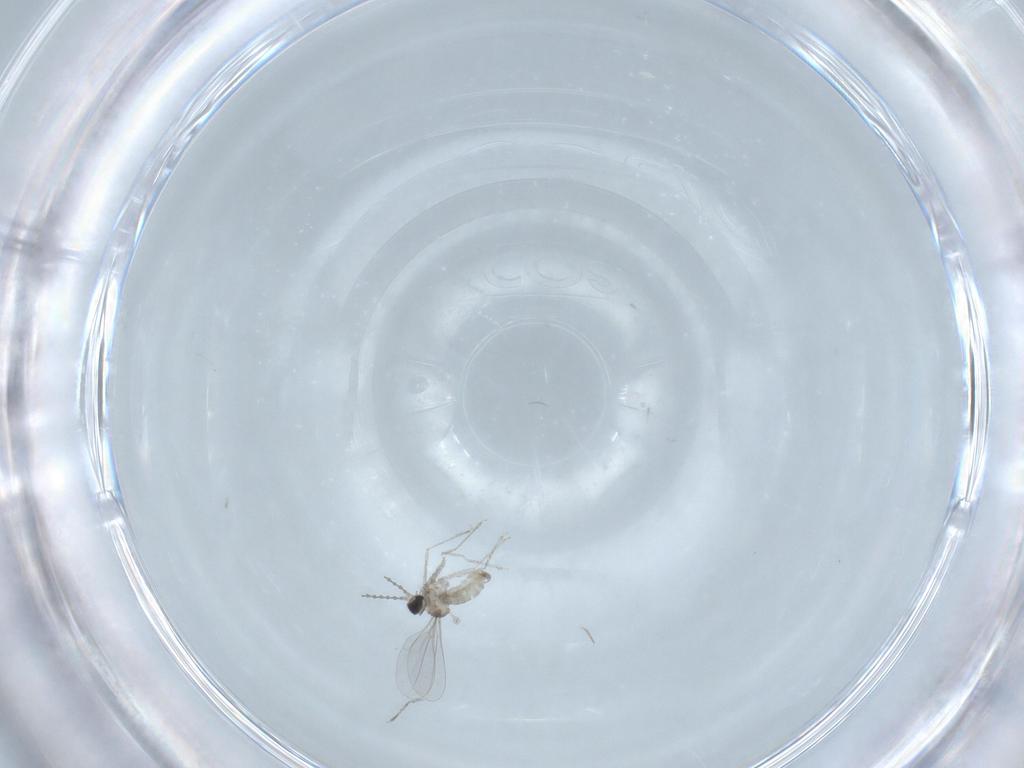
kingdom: Animalia
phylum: Arthropoda
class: Insecta
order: Diptera
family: Cecidomyiidae
